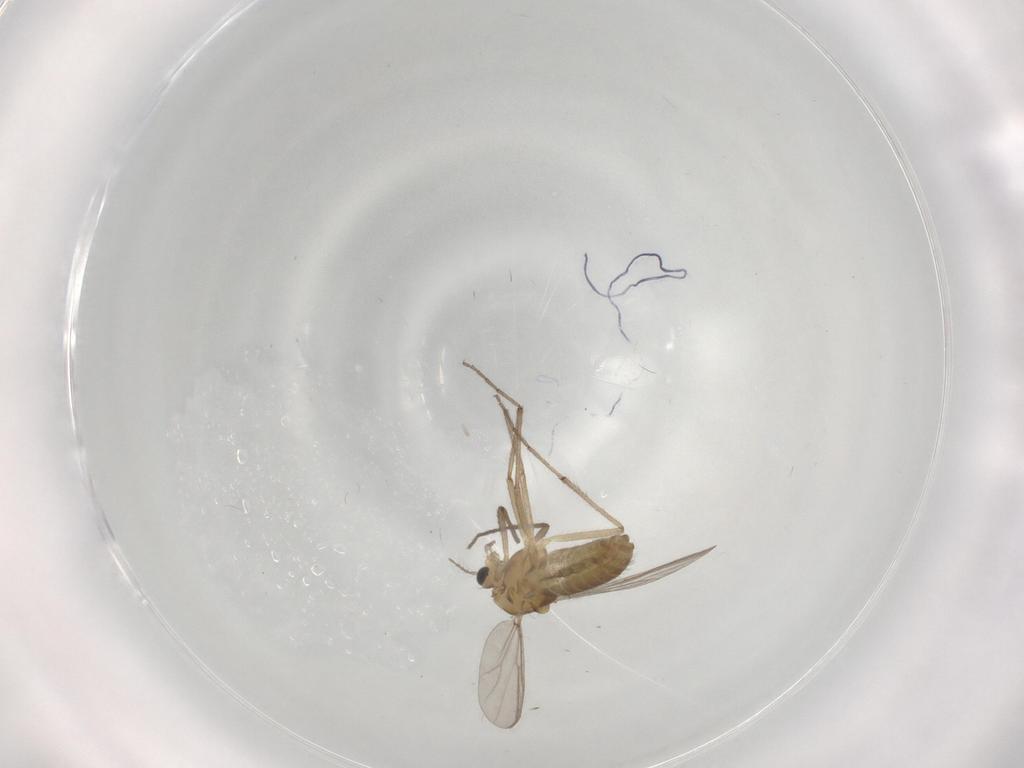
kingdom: Animalia
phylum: Arthropoda
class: Insecta
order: Diptera
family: Chironomidae
